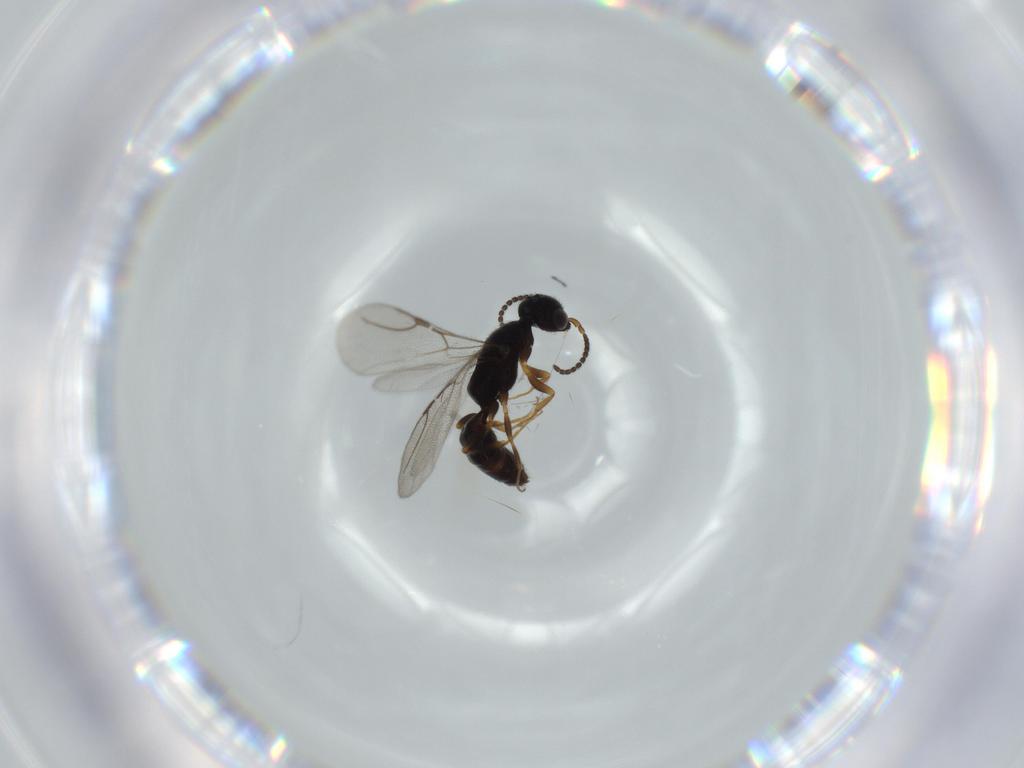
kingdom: Animalia
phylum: Arthropoda
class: Insecta
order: Hymenoptera
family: Bethylidae
